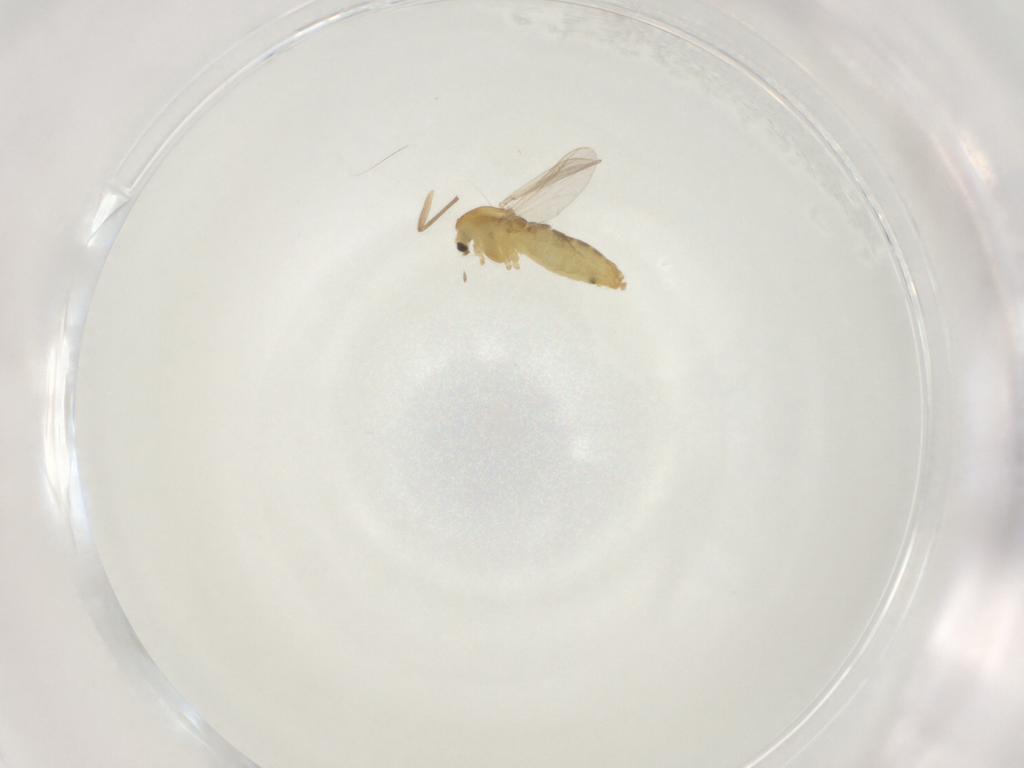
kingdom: Animalia
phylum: Arthropoda
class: Insecta
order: Diptera
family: Chironomidae
